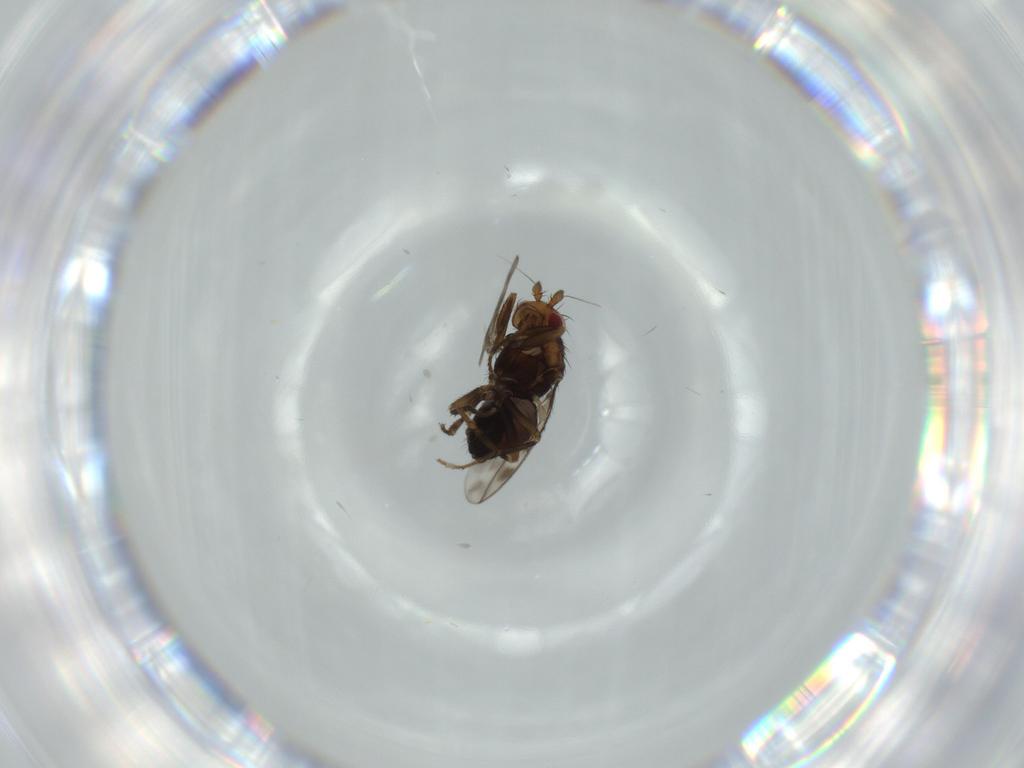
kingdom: Animalia
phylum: Arthropoda
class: Insecta
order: Diptera
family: Sphaeroceridae
